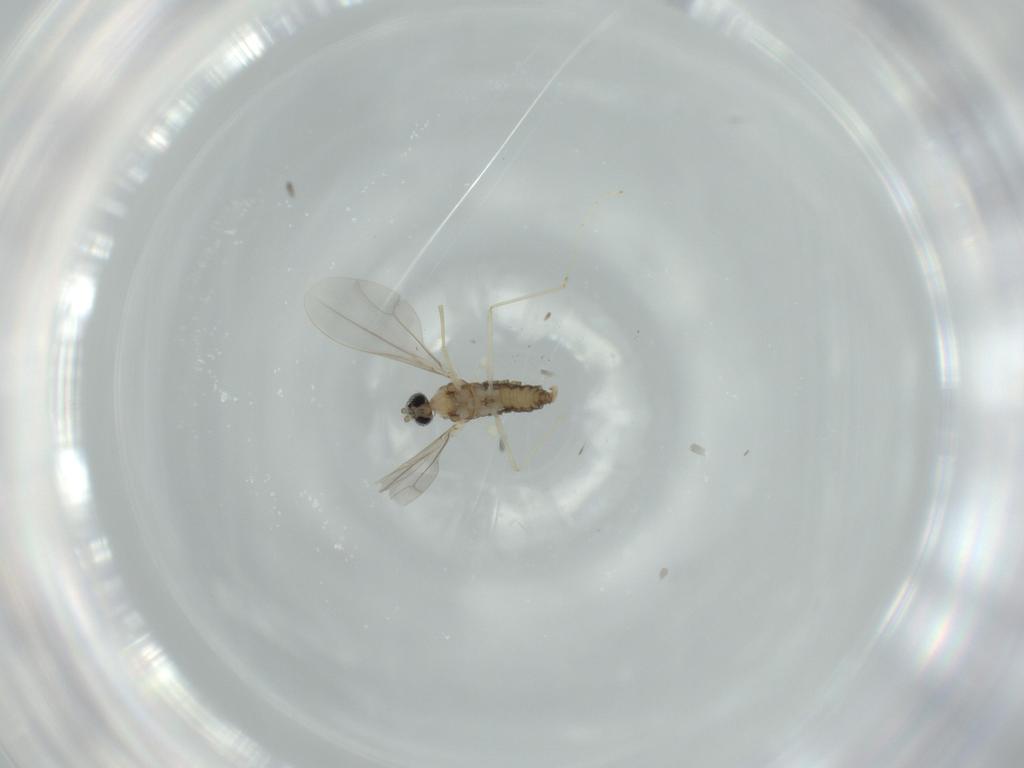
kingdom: Animalia
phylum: Arthropoda
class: Insecta
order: Diptera
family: Cecidomyiidae
